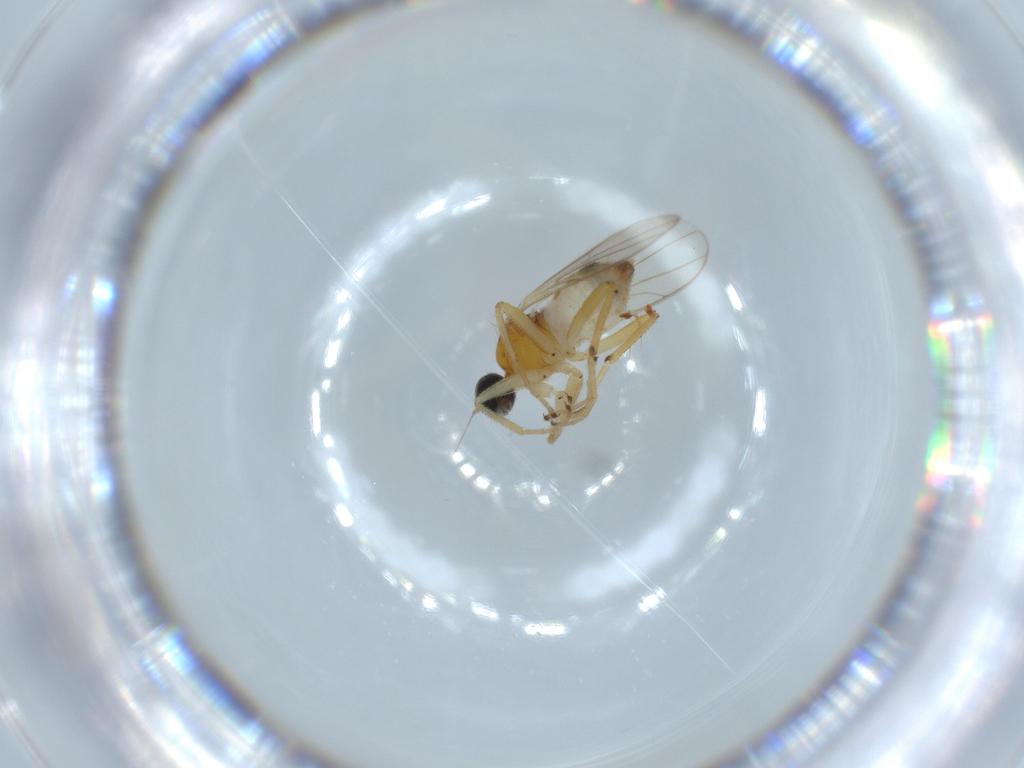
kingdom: Animalia
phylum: Arthropoda
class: Insecta
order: Diptera
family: Hybotidae
